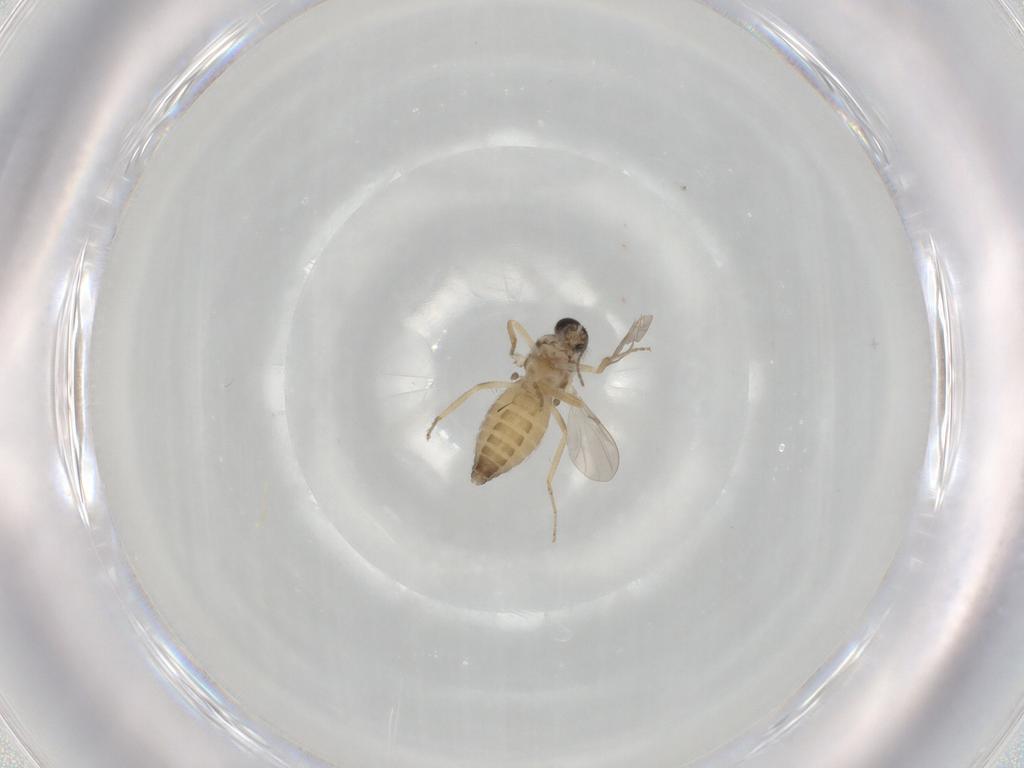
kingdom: Animalia
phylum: Arthropoda
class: Insecta
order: Diptera
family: Ceratopogonidae
